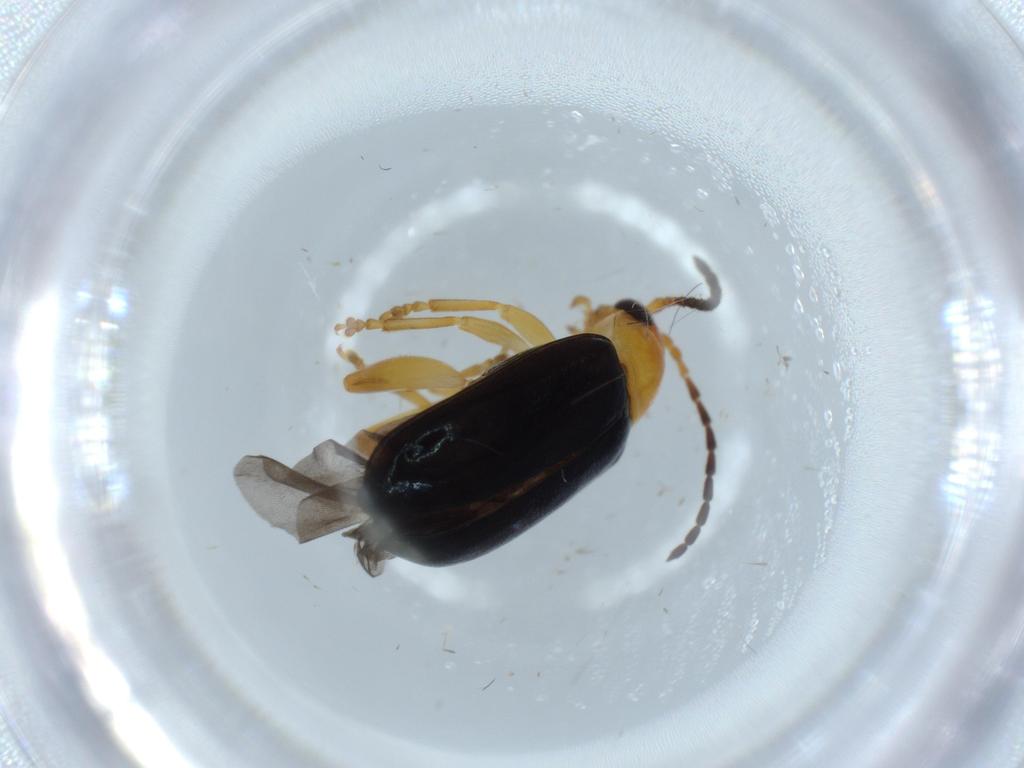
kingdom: Animalia
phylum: Arthropoda
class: Insecta
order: Coleoptera
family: Chrysomelidae
